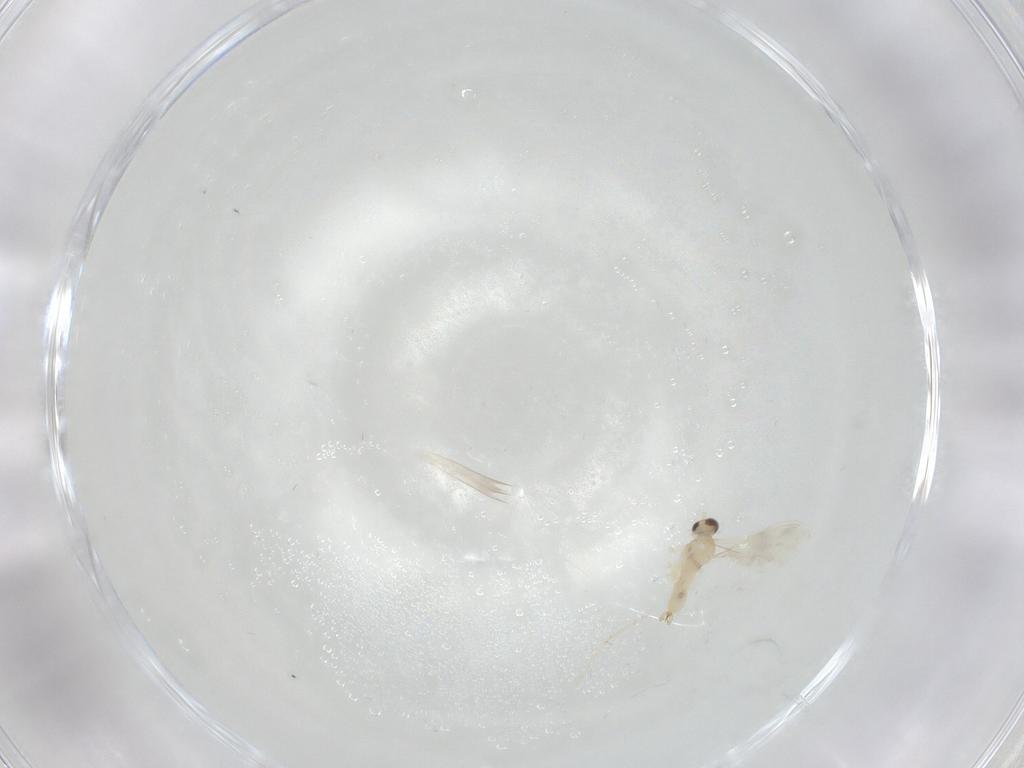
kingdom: Animalia
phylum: Arthropoda
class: Insecta
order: Diptera
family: Cecidomyiidae
